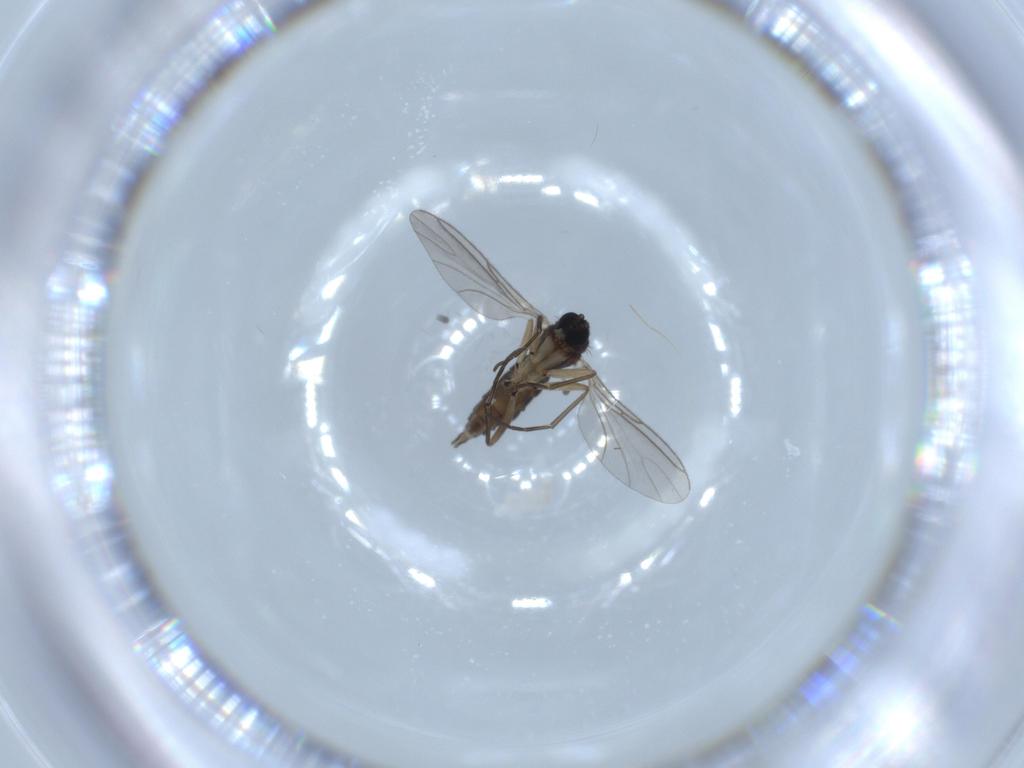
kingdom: Animalia
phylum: Arthropoda
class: Insecta
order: Diptera
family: Sciaridae
